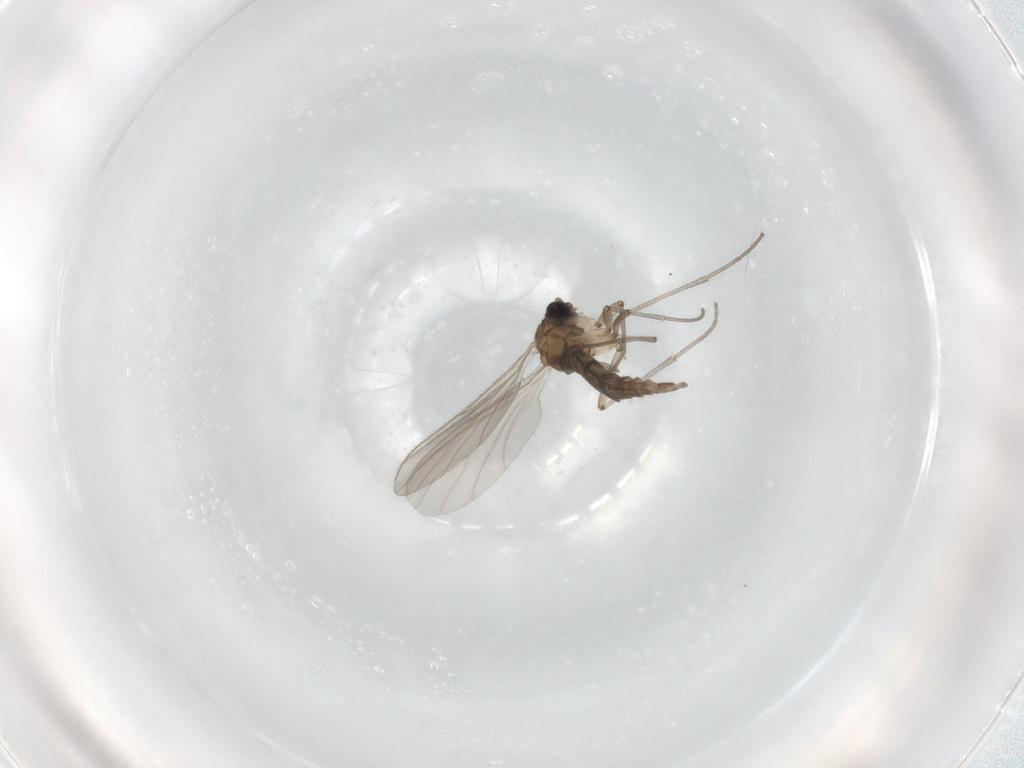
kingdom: Animalia
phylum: Arthropoda
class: Insecta
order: Diptera
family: Sciaridae
